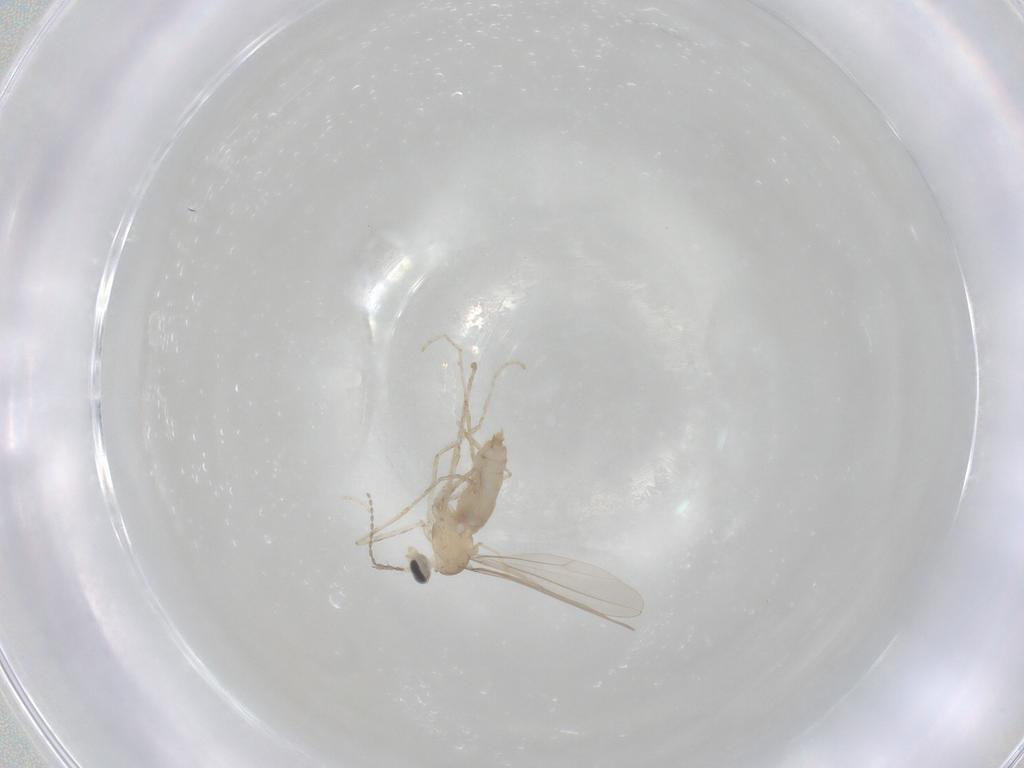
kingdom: Animalia
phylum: Arthropoda
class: Insecta
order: Diptera
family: Cecidomyiidae
